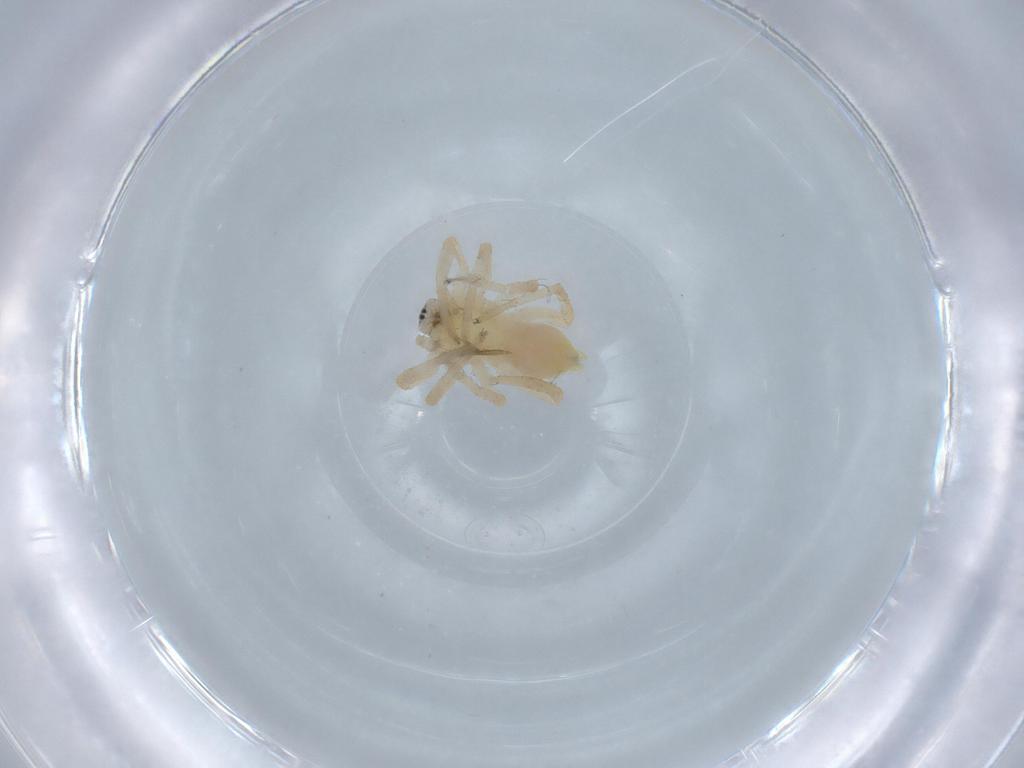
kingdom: Animalia
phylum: Arthropoda
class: Arachnida
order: Araneae
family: Anyphaenidae
